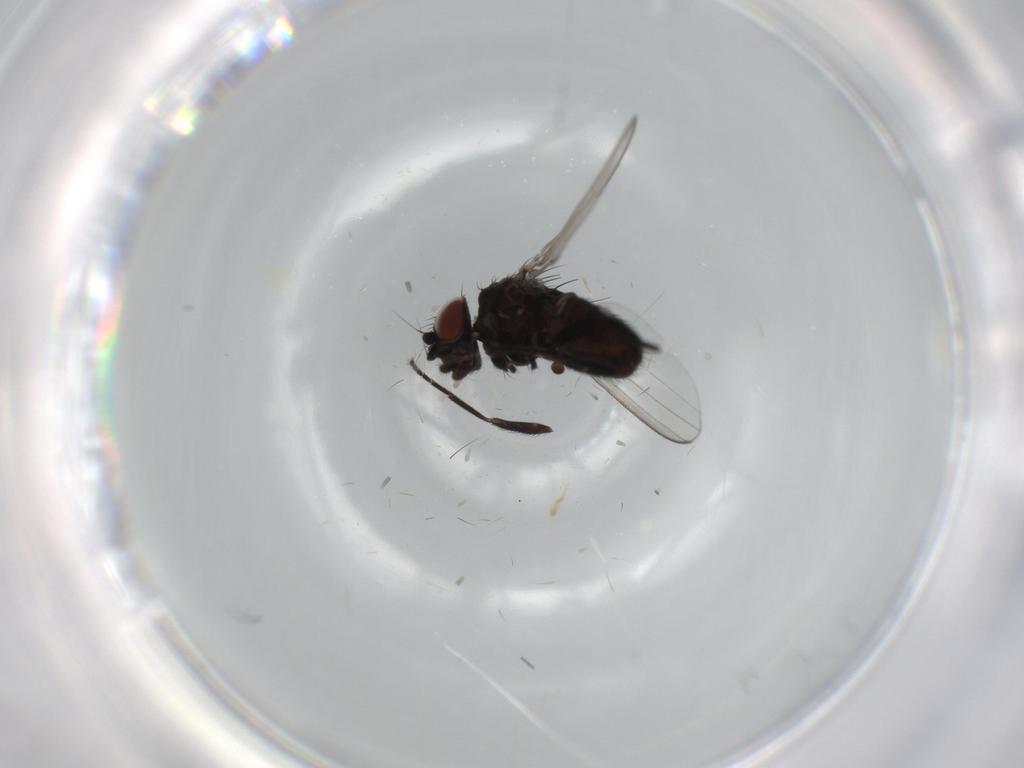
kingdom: Animalia
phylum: Arthropoda
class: Insecta
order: Diptera
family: Milichiidae
